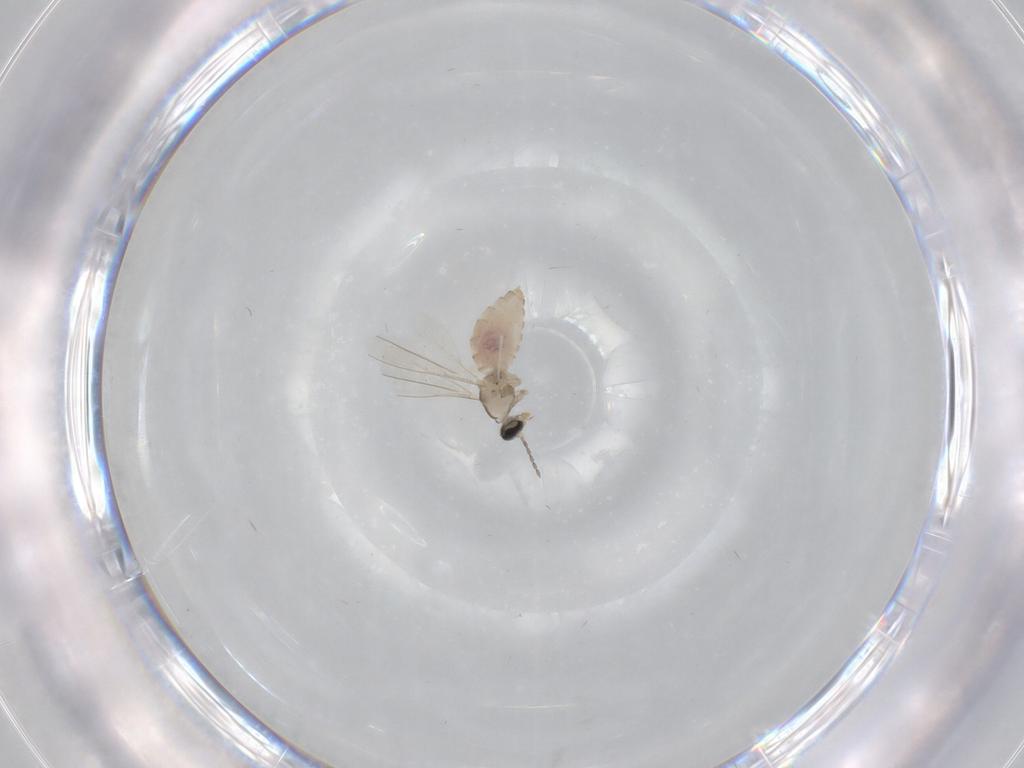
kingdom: Animalia
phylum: Arthropoda
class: Insecta
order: Diptera
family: Cecidomyiidae
